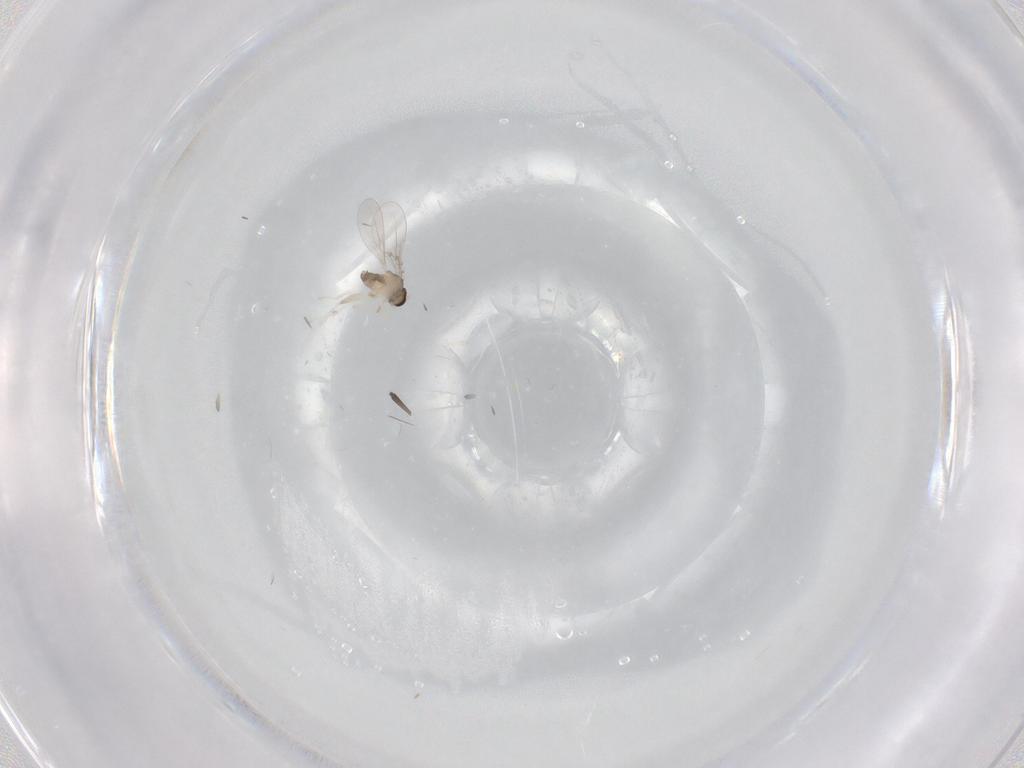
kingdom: Animalia
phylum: Arthropoda
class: Insecta
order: Diptera
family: Cecidomyiidae
